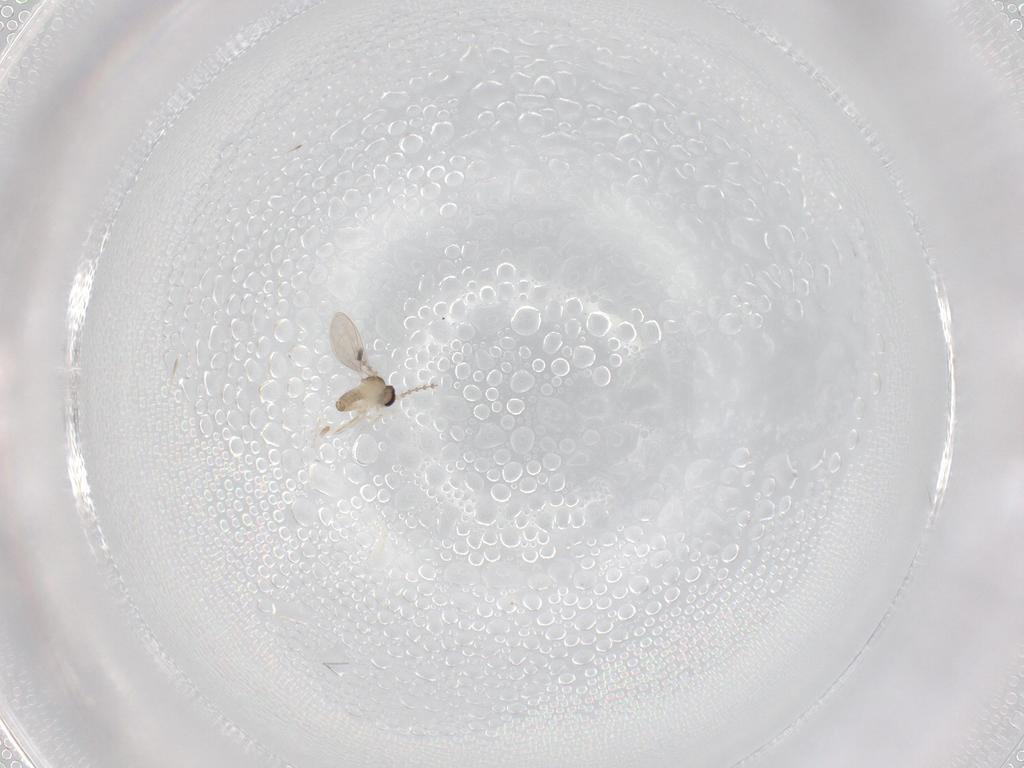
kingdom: Animalia
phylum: Arthropoda
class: Insecta
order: Diptera
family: Cecidomyiidae
